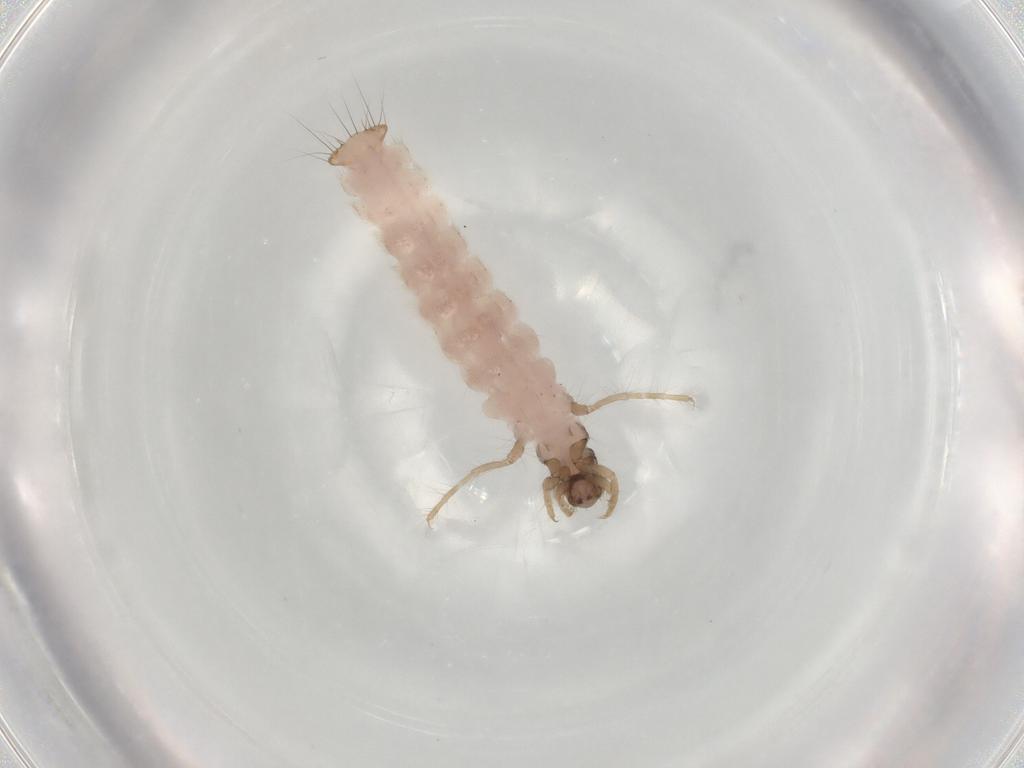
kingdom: Animalia
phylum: Arthropoda
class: Insecta
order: Trichoptera
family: Molannidae
